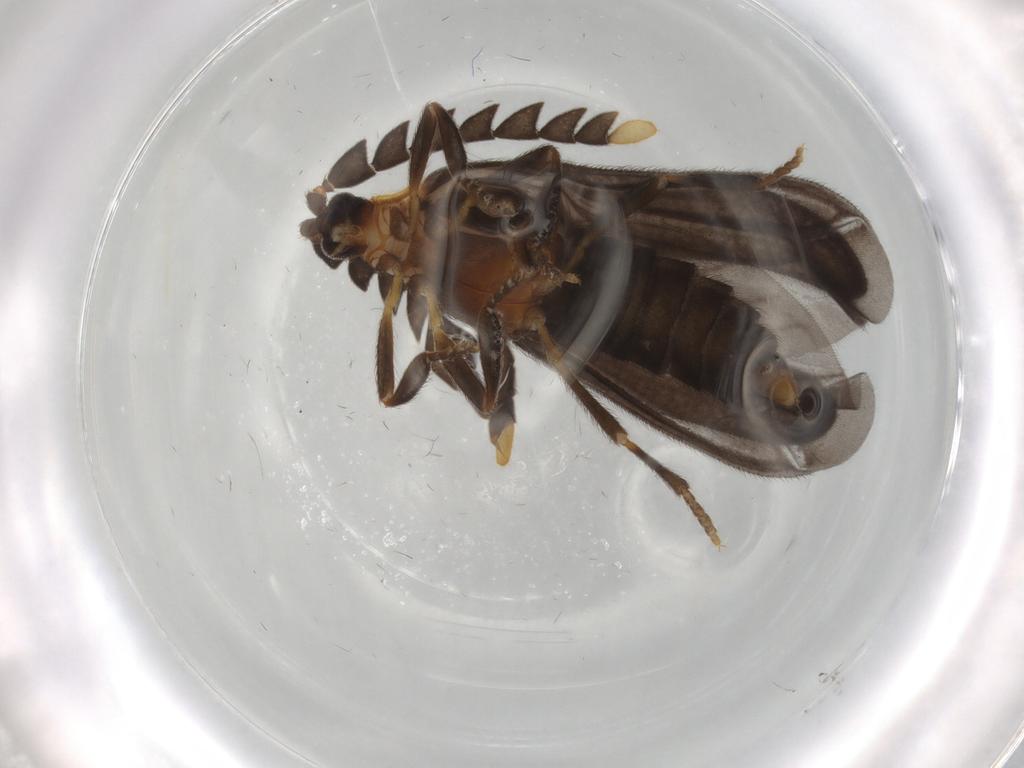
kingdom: Animalia
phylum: Arthropoda
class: Insecta
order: Coleoptera
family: Lycidae
